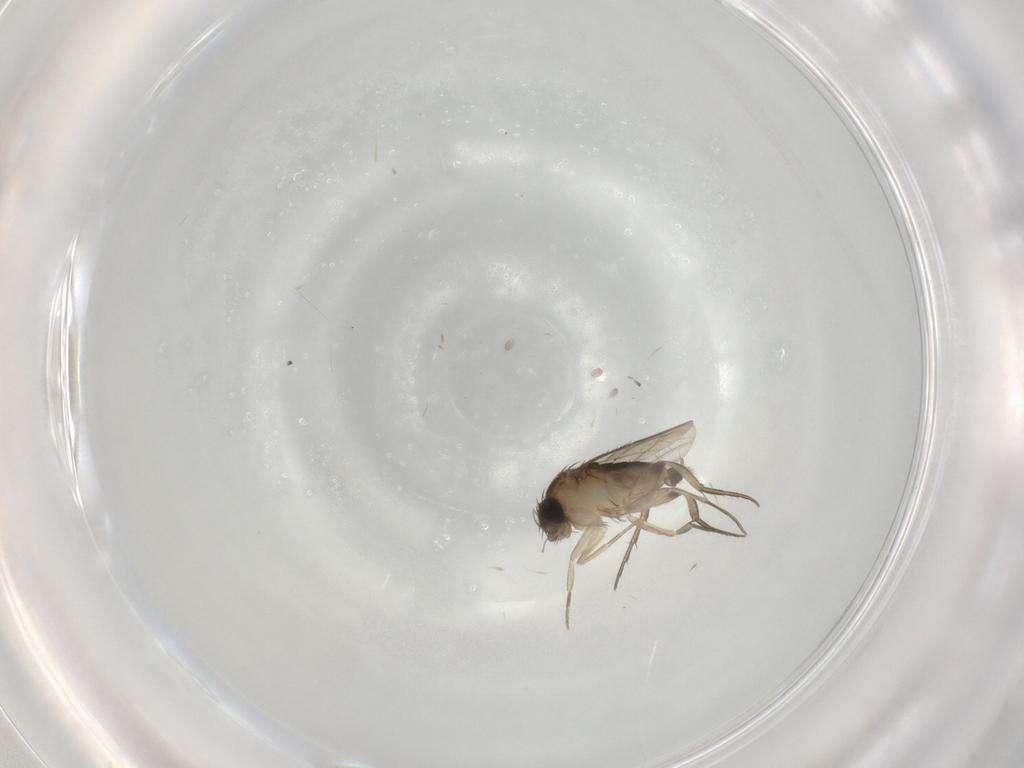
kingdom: Animalia
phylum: Arthropoda
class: Insecta
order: Diptera
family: Phoridae
